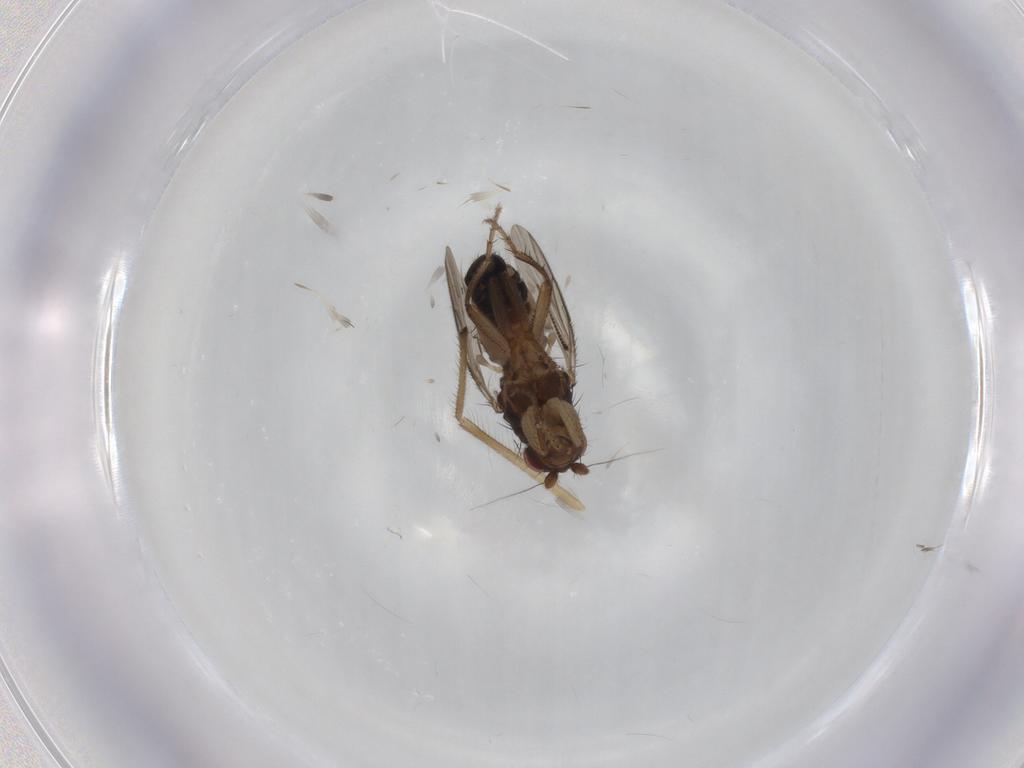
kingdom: Animalia
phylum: Arthropoda
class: Insecta
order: Diptera
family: Sphaeroceridae
